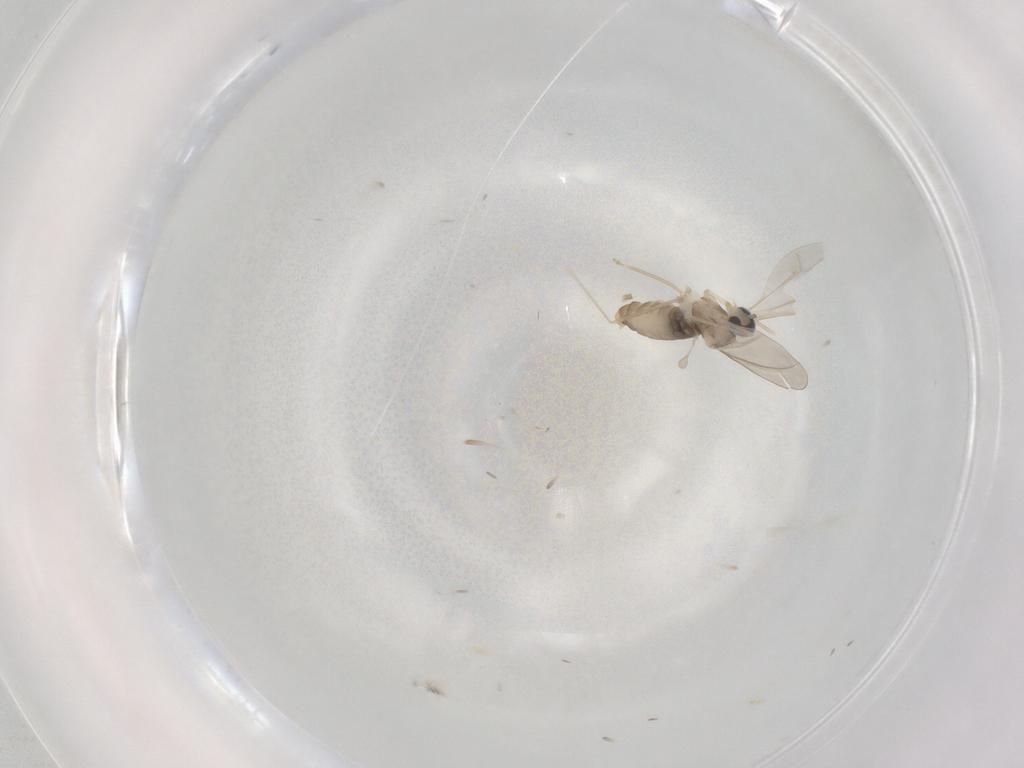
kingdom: Animalia
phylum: Arthropoda
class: Insecta
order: Diptera
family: Cecidomyiidae
